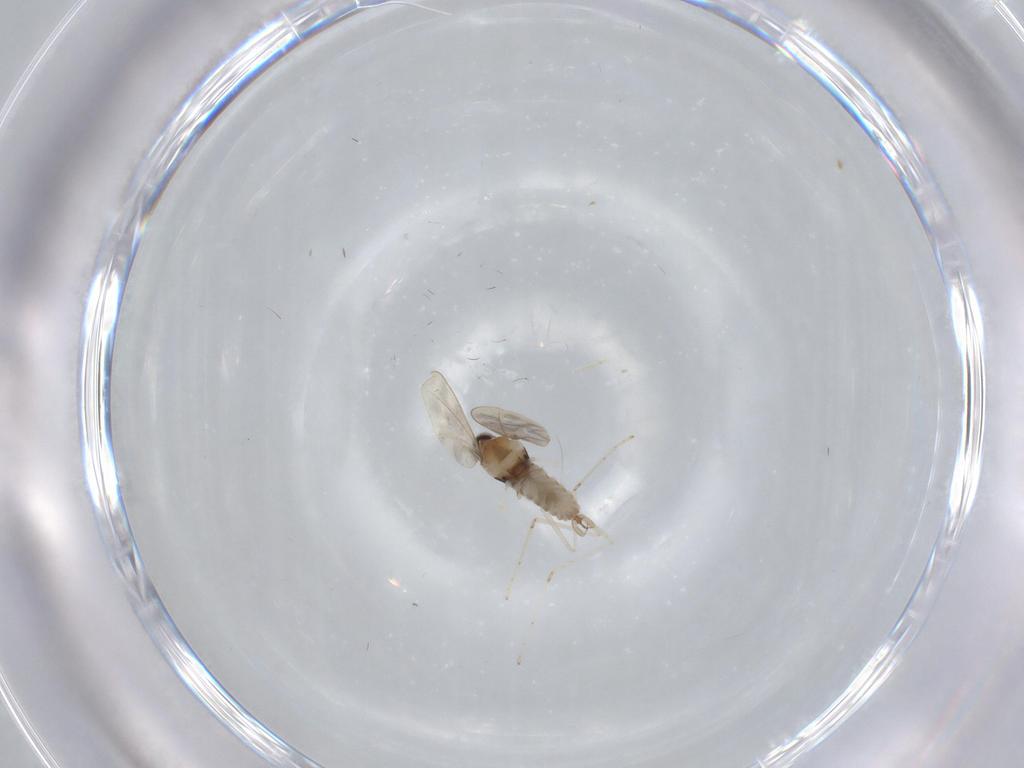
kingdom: Animalia
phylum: Arthropoda
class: Insecta
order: Diptera
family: Cecidomyiidae
